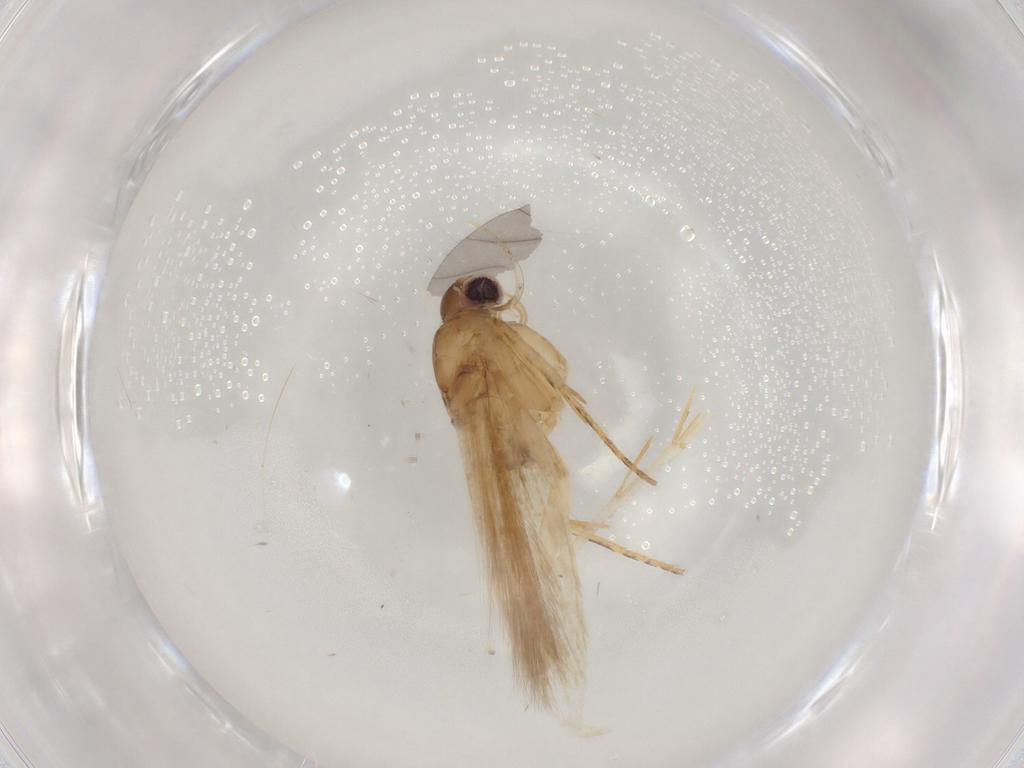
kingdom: Animalia
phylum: Arthropoda
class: Insecta
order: Lepidoptera
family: Gelechiidae
